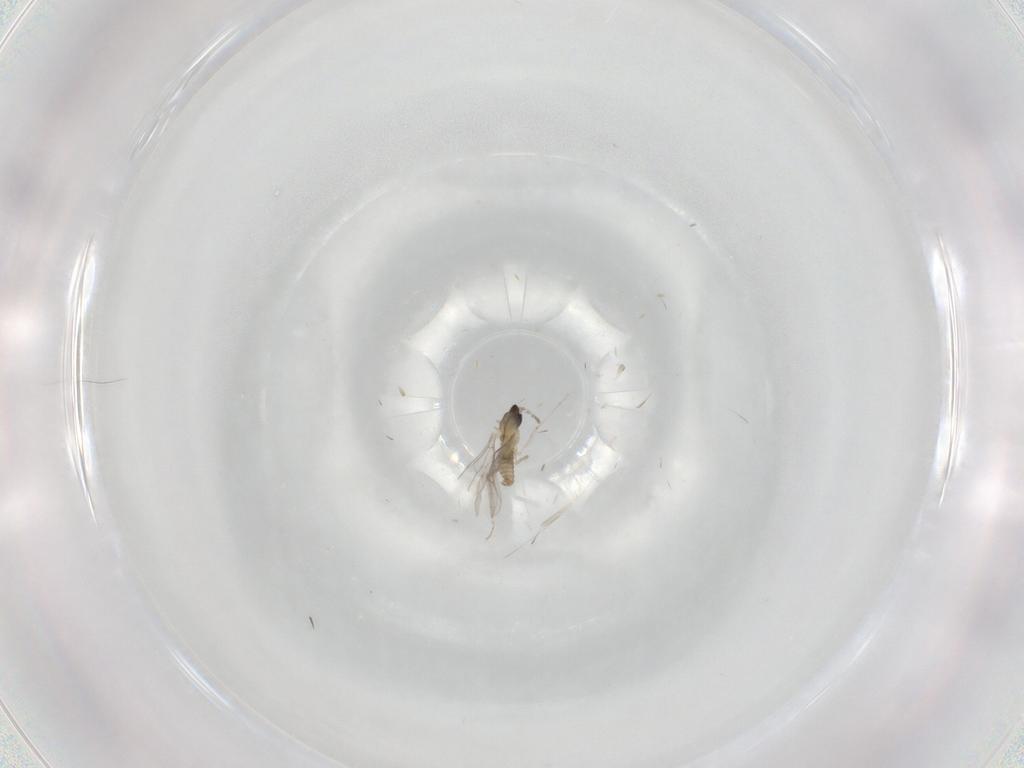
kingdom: Animalia
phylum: Arthropoda
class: Insecta
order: Diptera
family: Cecidomyiidae
